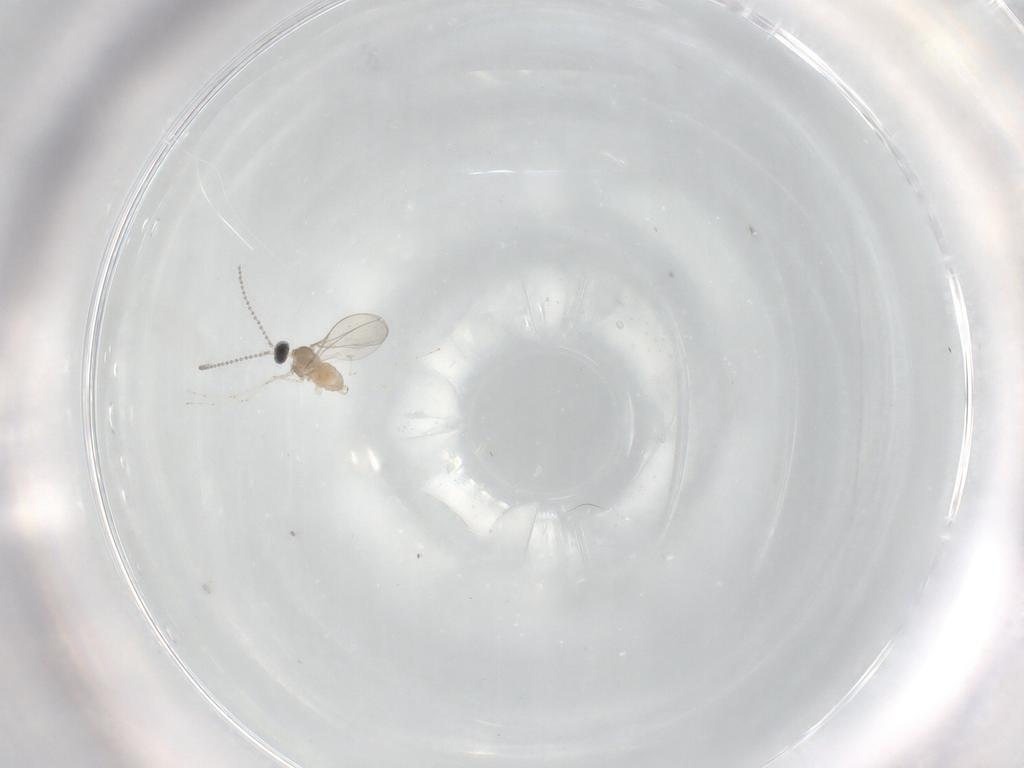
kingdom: Animalia
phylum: Arthropoda
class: Insecta
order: Diptera
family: Cecidomyiidae
